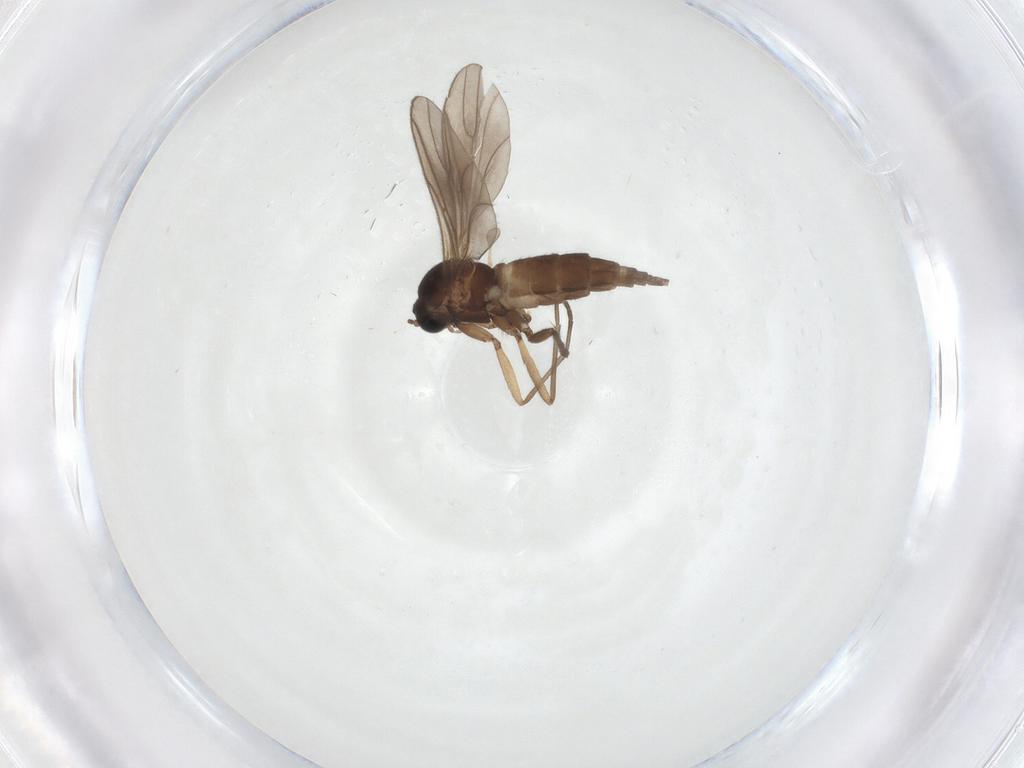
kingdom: Animalia
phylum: Arthropoda
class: Insecta
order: Diptera
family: Sciaridae
